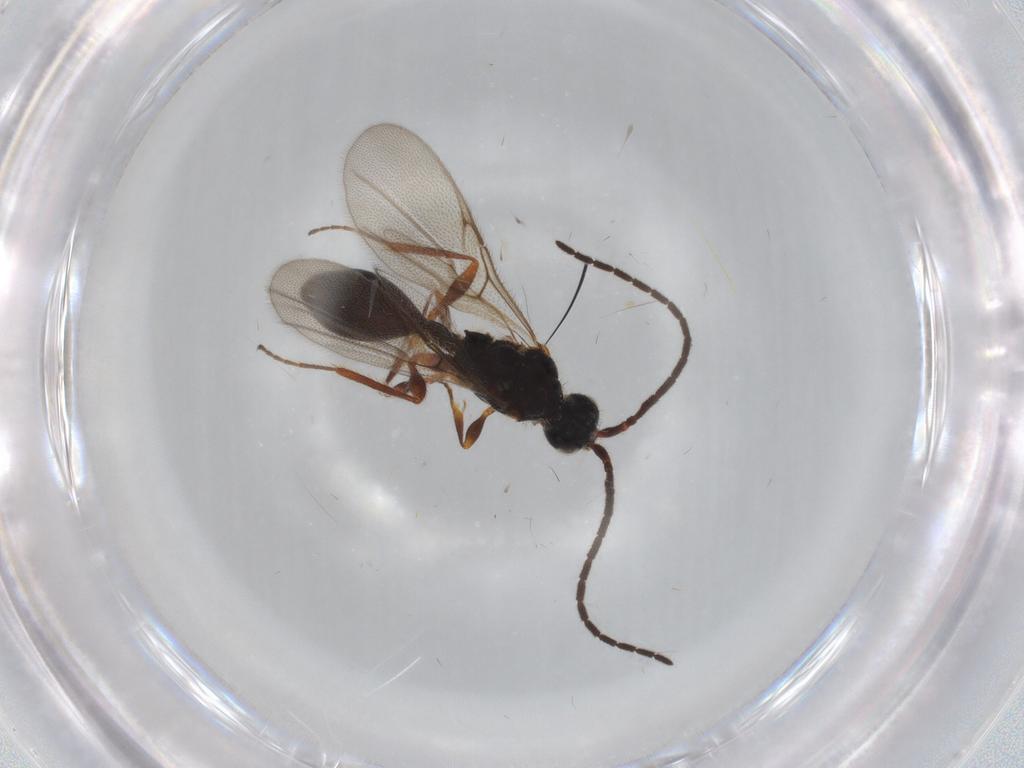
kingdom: Animalia
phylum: Arthropoda
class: Insecta
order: Hymenoptera
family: Diapriidae
